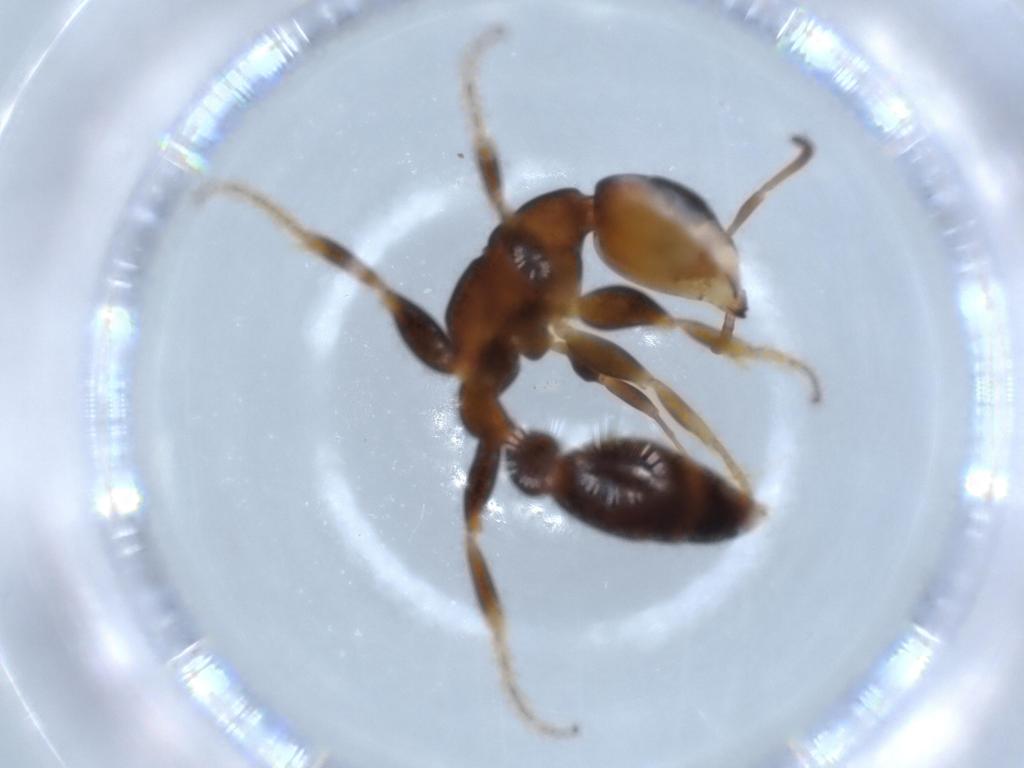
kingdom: Animalia
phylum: Arthropoda
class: Insecta
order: Hymenoptera
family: Formicidae
